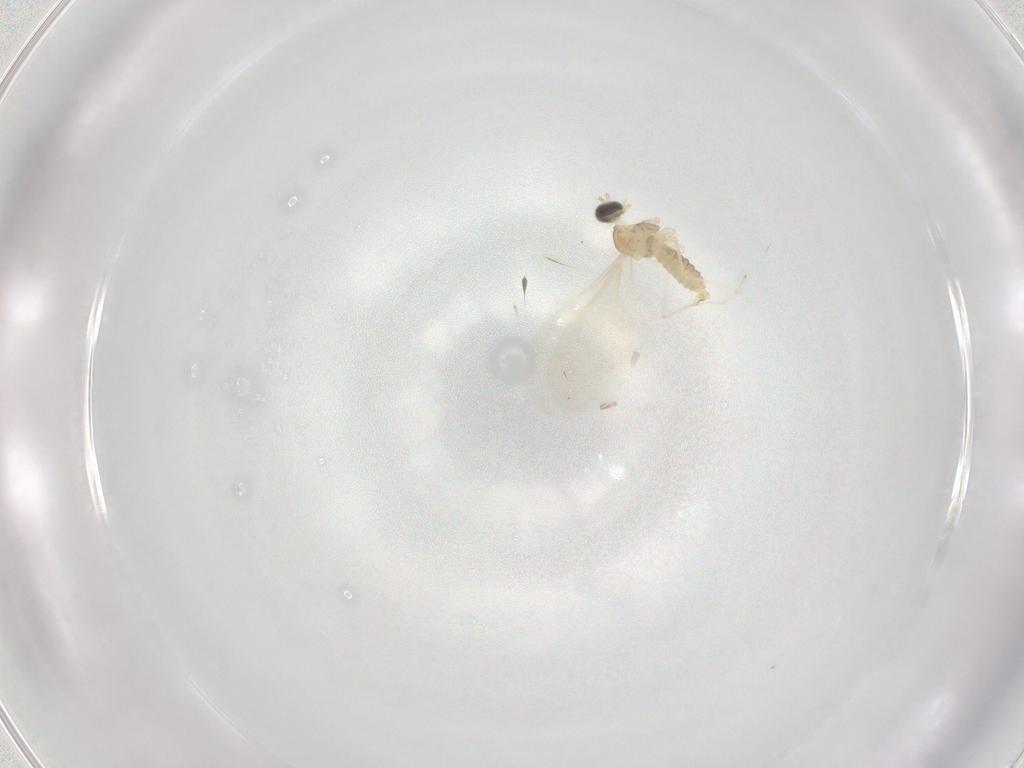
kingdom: Animalia
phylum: Arthropoda
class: Insecta
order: Diptera
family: Cecidomyiidae
